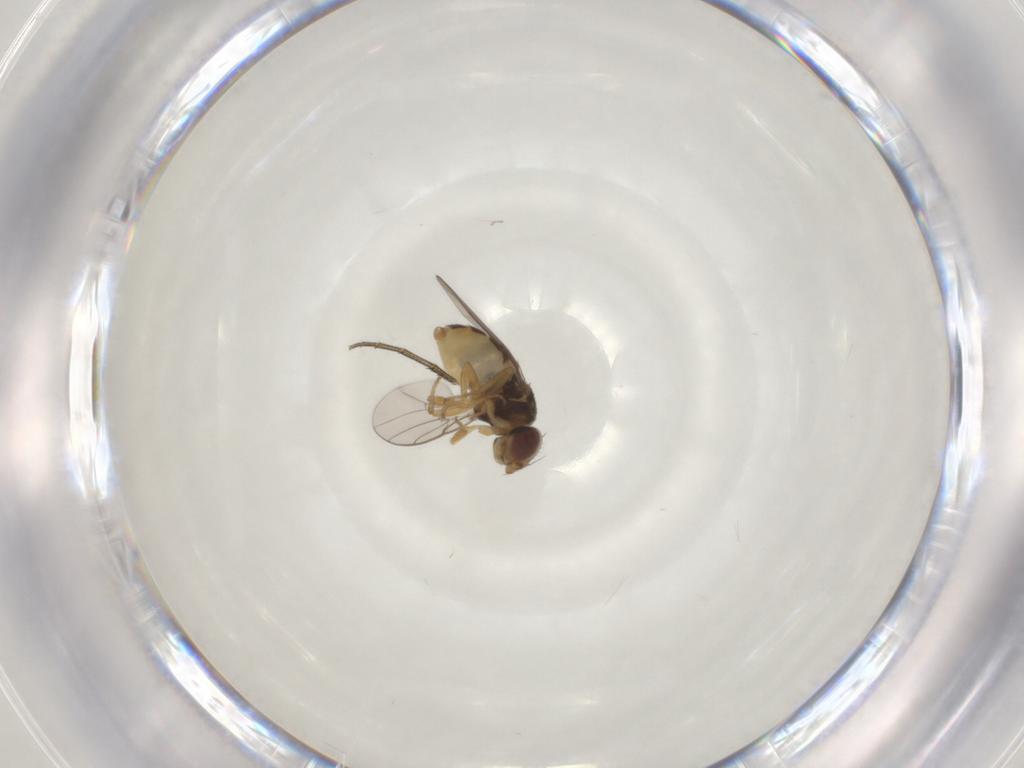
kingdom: Animalia
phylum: Arthropoda
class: Insecta
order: Diptera
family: Chloropidae
